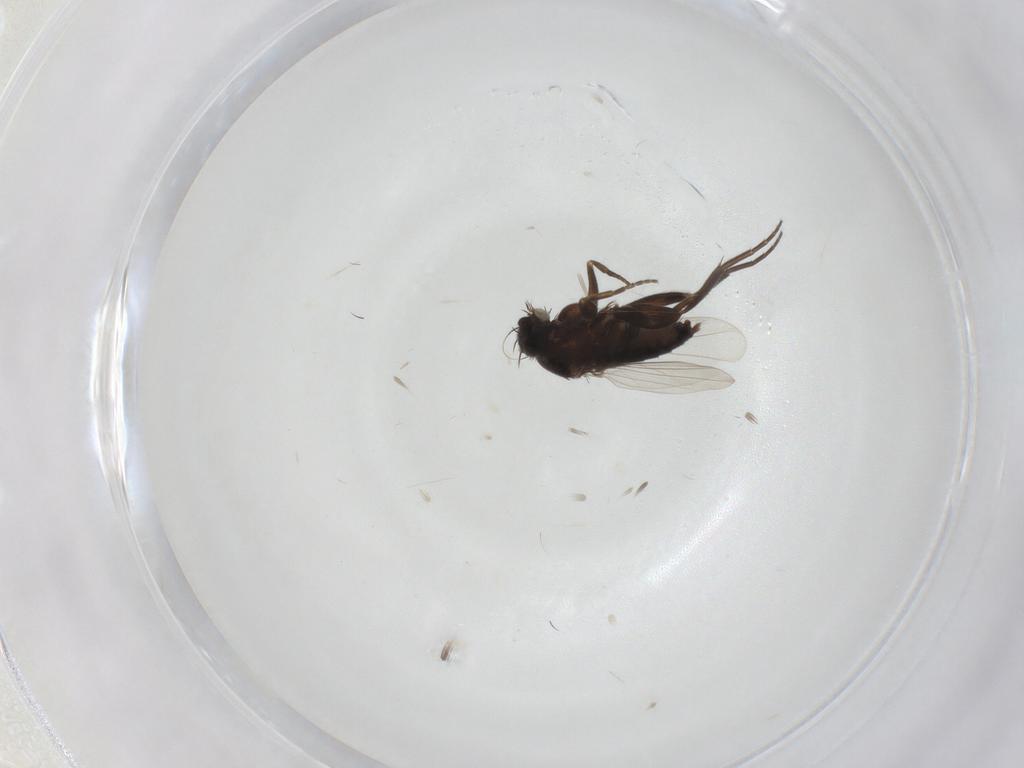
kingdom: Animalia
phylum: Arthropoda
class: Insecta
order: Diptera
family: Phoridae
